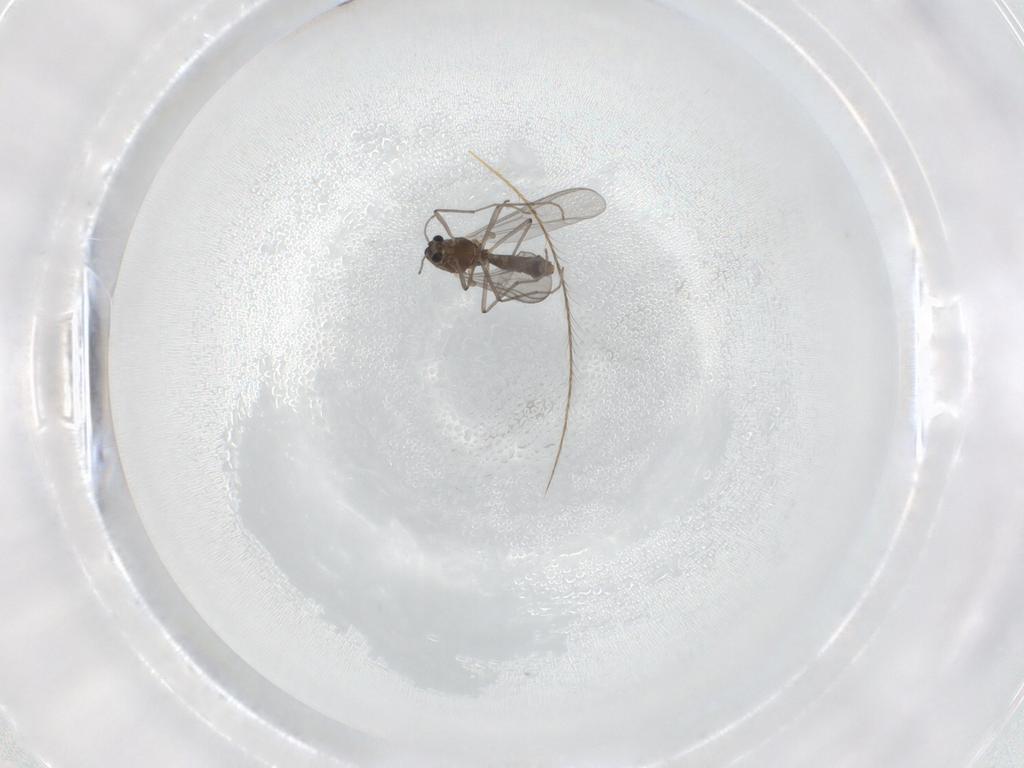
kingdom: Animalia
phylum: Arthropoda
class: Insecta
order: Diptera
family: Chironomidae
